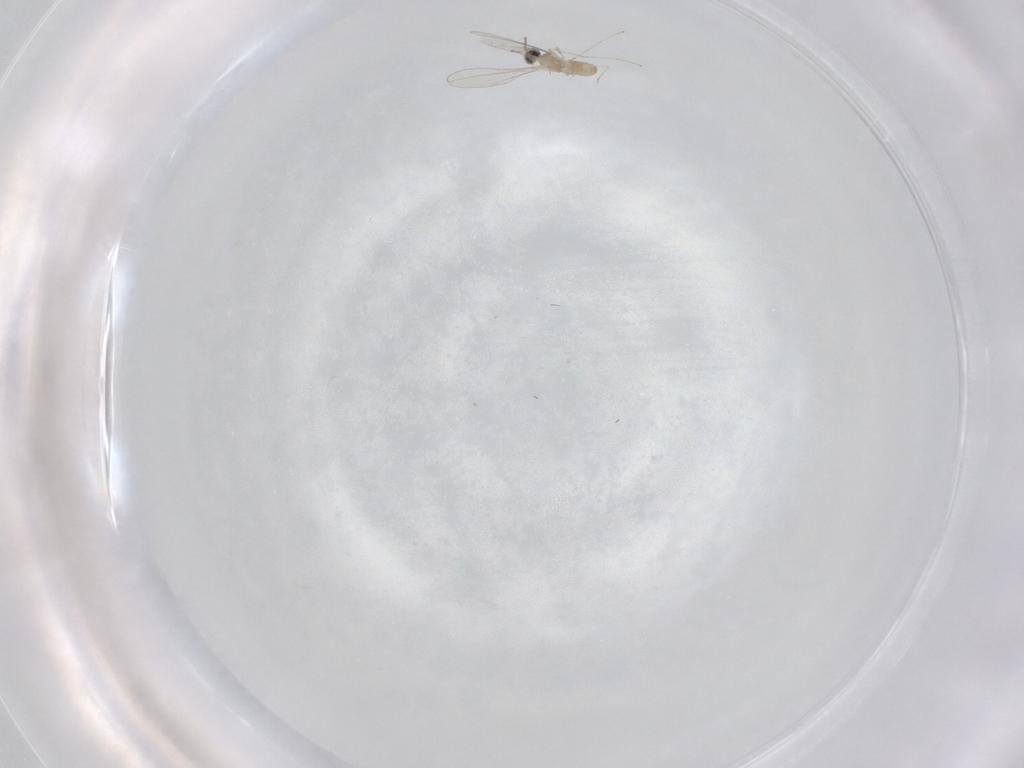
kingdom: Animalia
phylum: Arthropoda
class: Insecta
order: Diptera
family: Cecidomyiidae
